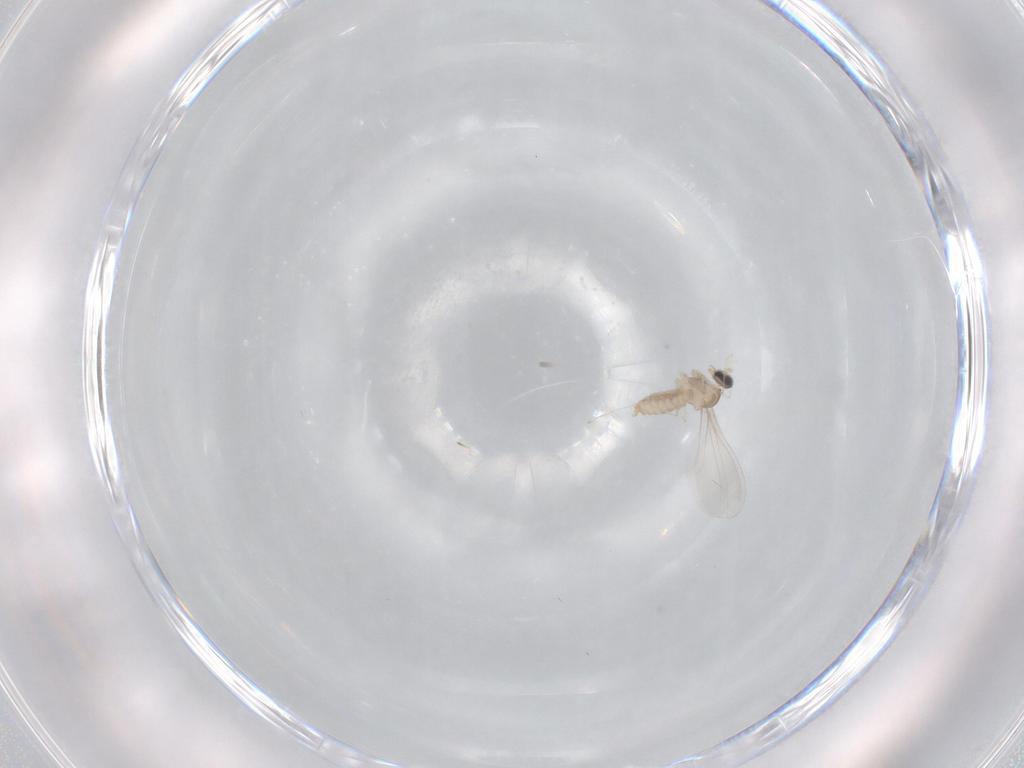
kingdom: Animalia
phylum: Arthropoda
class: Insecta
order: Diptera
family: Cecidomyiidae
